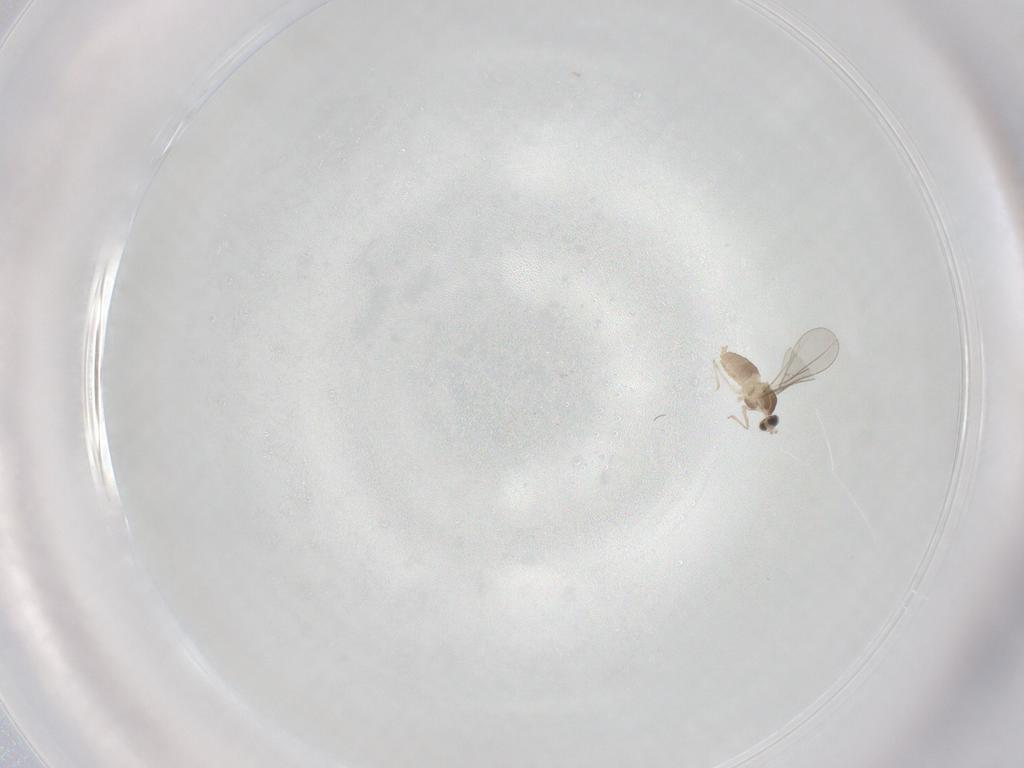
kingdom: Animalia
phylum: Arthropoda
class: Insecta
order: Diptera
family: Cecidomyiidae
